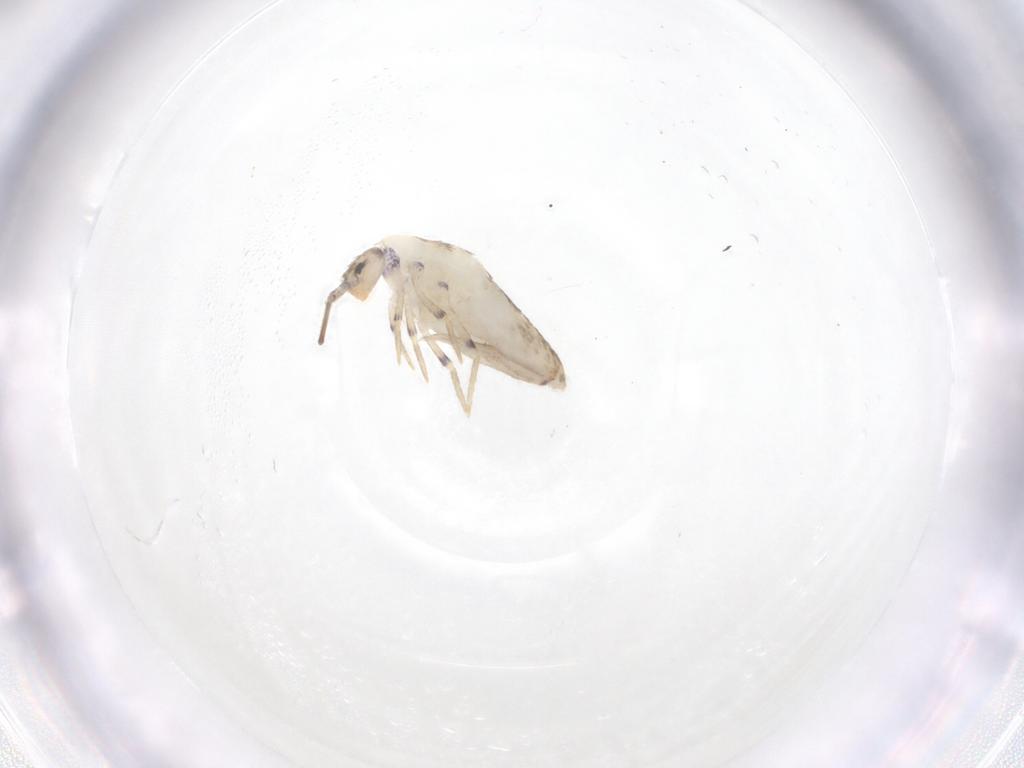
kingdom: Animalia
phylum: Arthropoda
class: Collembola
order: Entomobryomorpha
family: Entomobryidae
